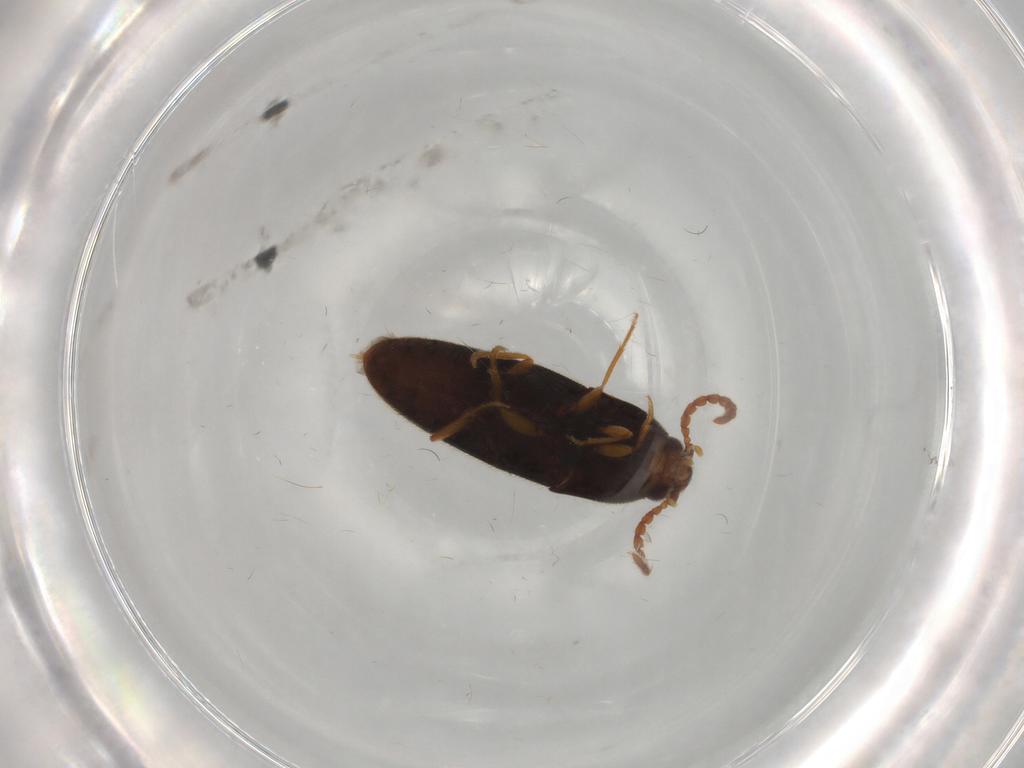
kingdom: Animalia
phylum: Arthropoda
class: Insecta
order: Coleoptera
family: Elateridae
